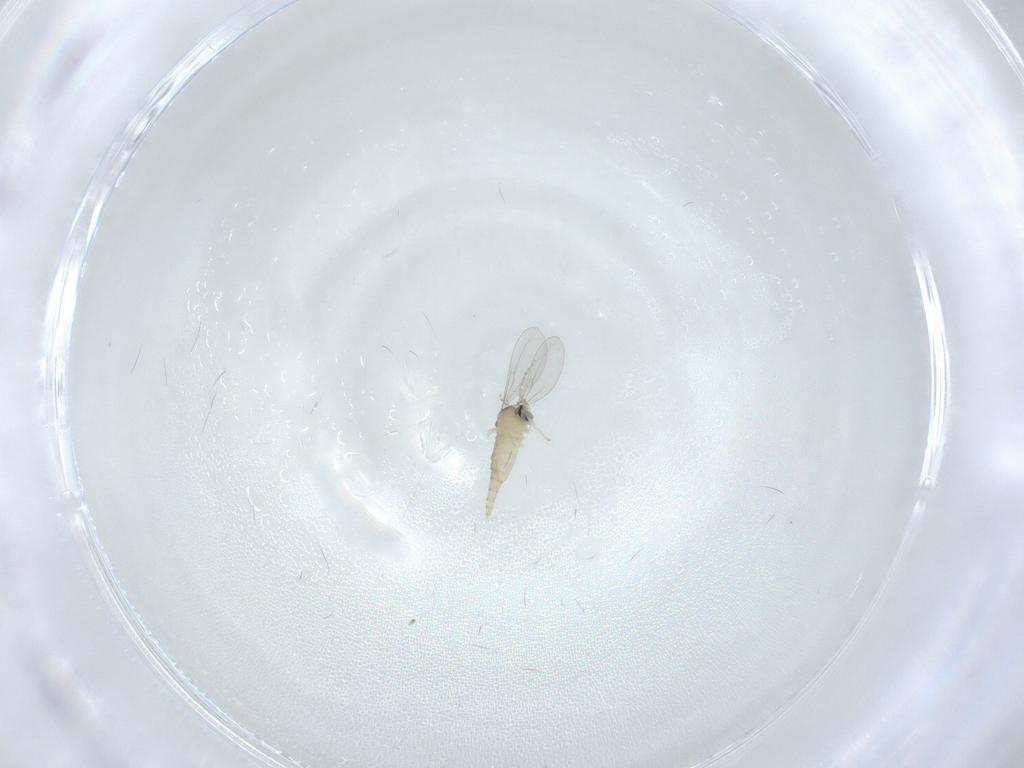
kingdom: Animalia
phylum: Arthropoda
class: Insecta
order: Diptera
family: Cecidomyiidae
